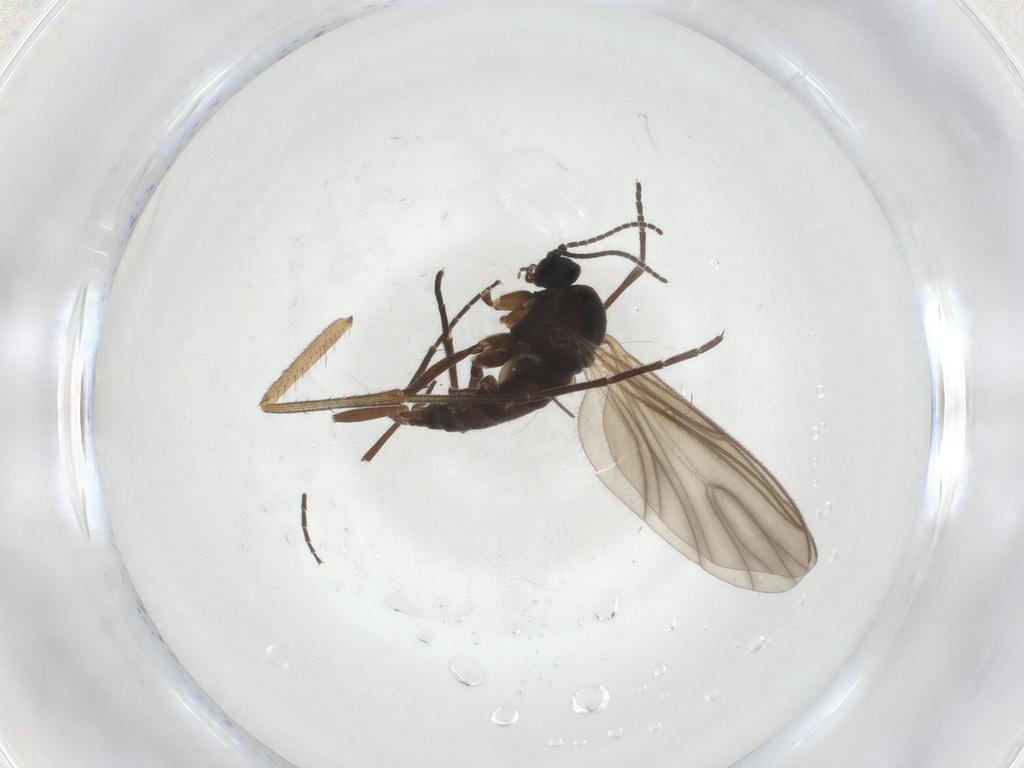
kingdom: Animalia
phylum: Arthropoda
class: Insecta
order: Diptera
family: Sciaridae
